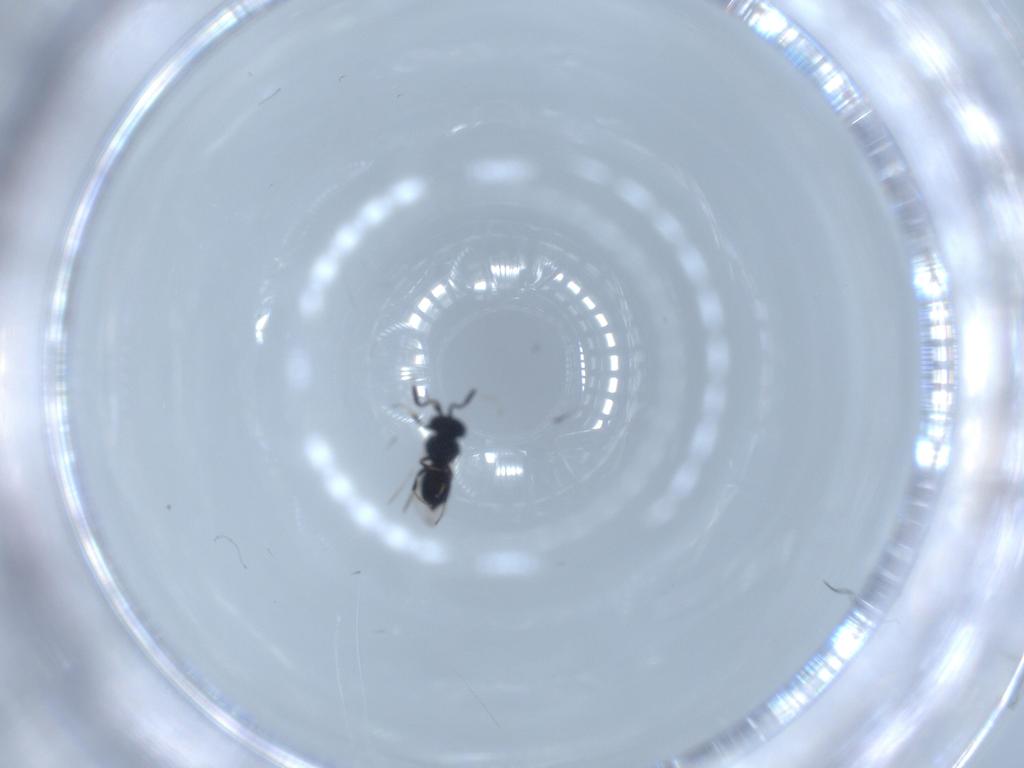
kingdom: Animalia
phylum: Arthropoda
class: Insecta
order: Hymenoptera
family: Scelionidae
